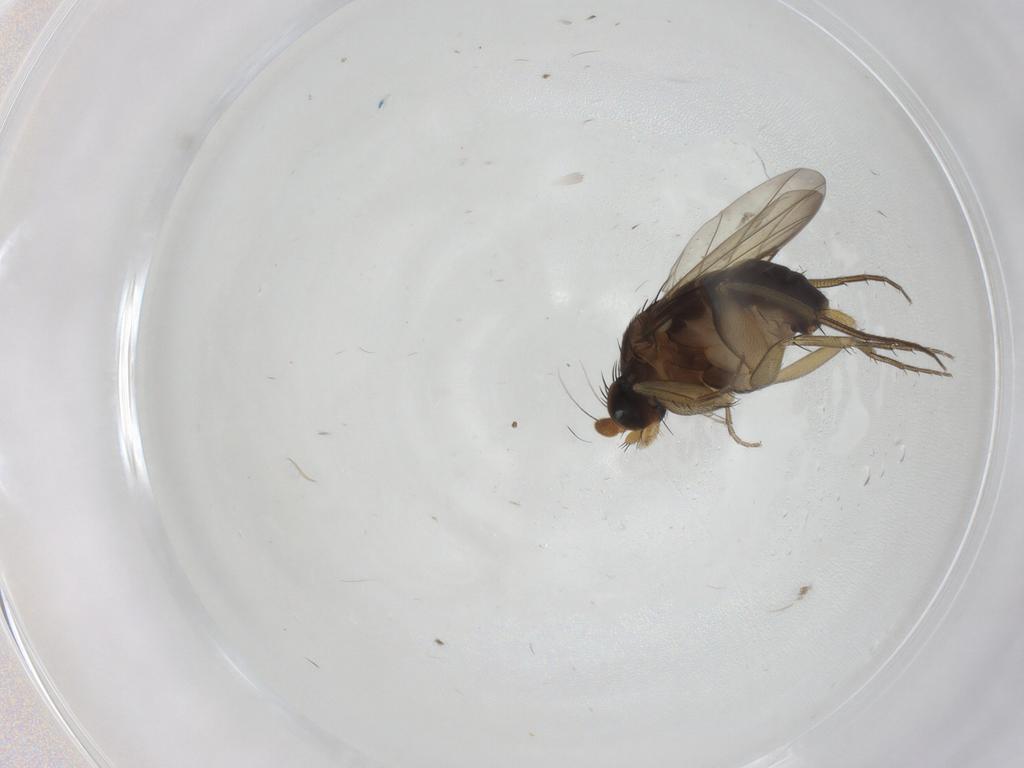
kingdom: Animalia
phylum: Arthropoda
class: Insecta
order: Diptera
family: Phoridae
